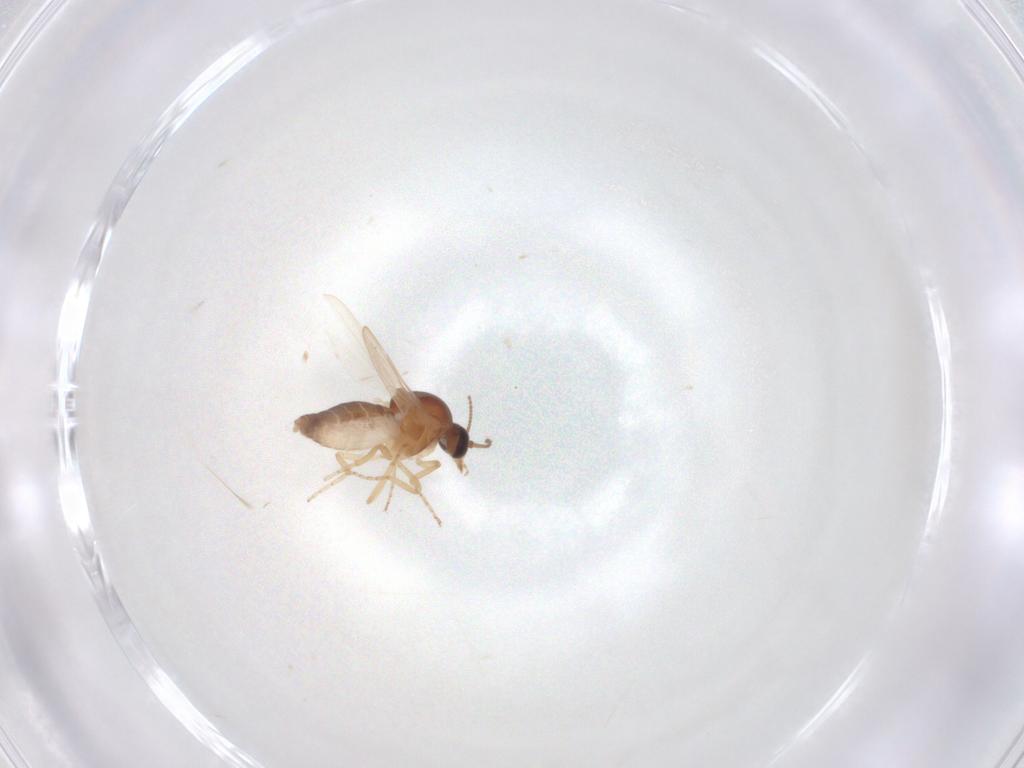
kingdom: Animalia
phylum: Arthropoda
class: Insecta
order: Diptera
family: Ceratopogonidae
